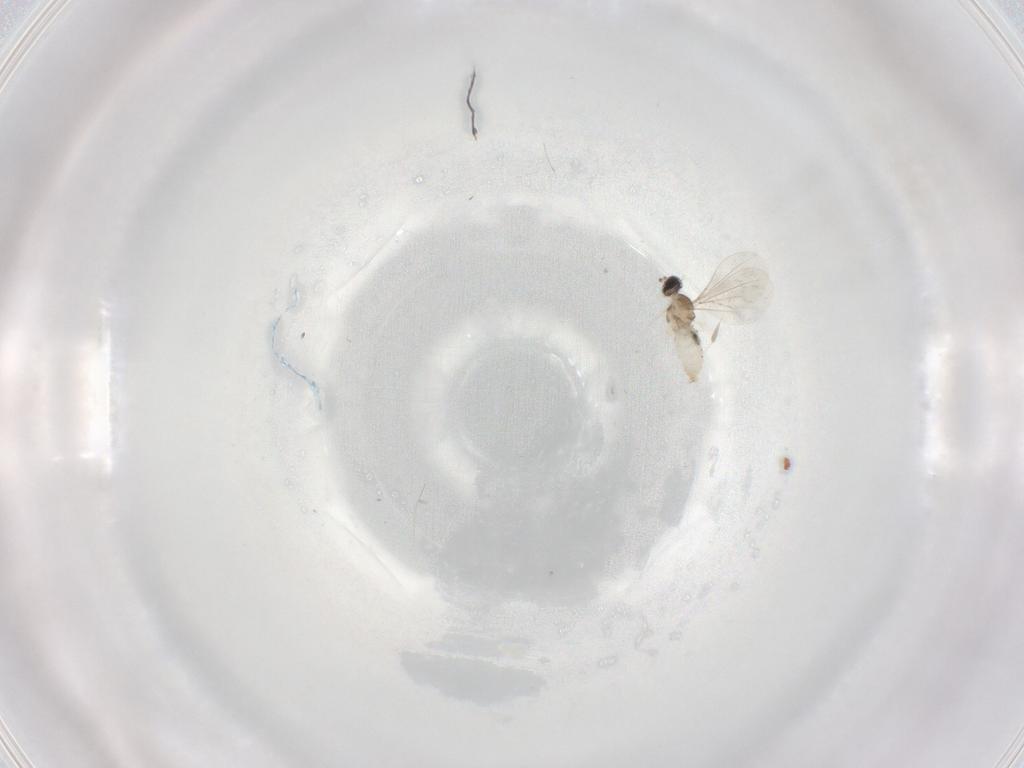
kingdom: Animalia
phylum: Arthropoda
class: Insecta
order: Diptera
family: Cecidomyiidae
